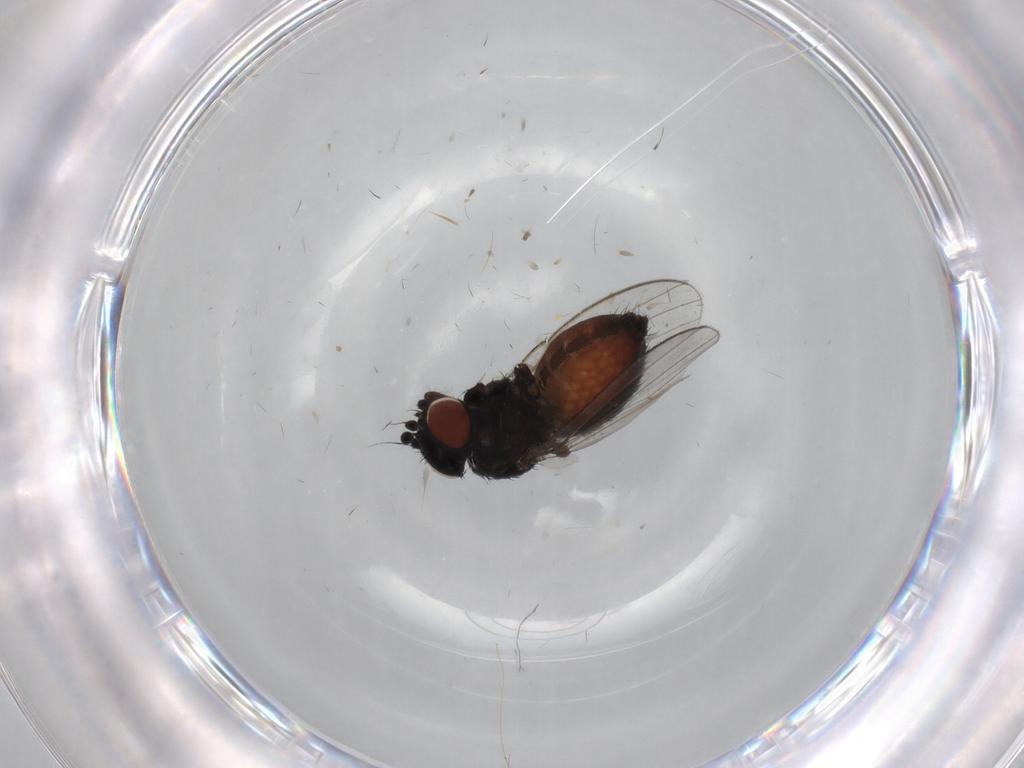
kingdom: Animalia
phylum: Arthropoda
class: Insecta
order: Diptera
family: Milichiidae
